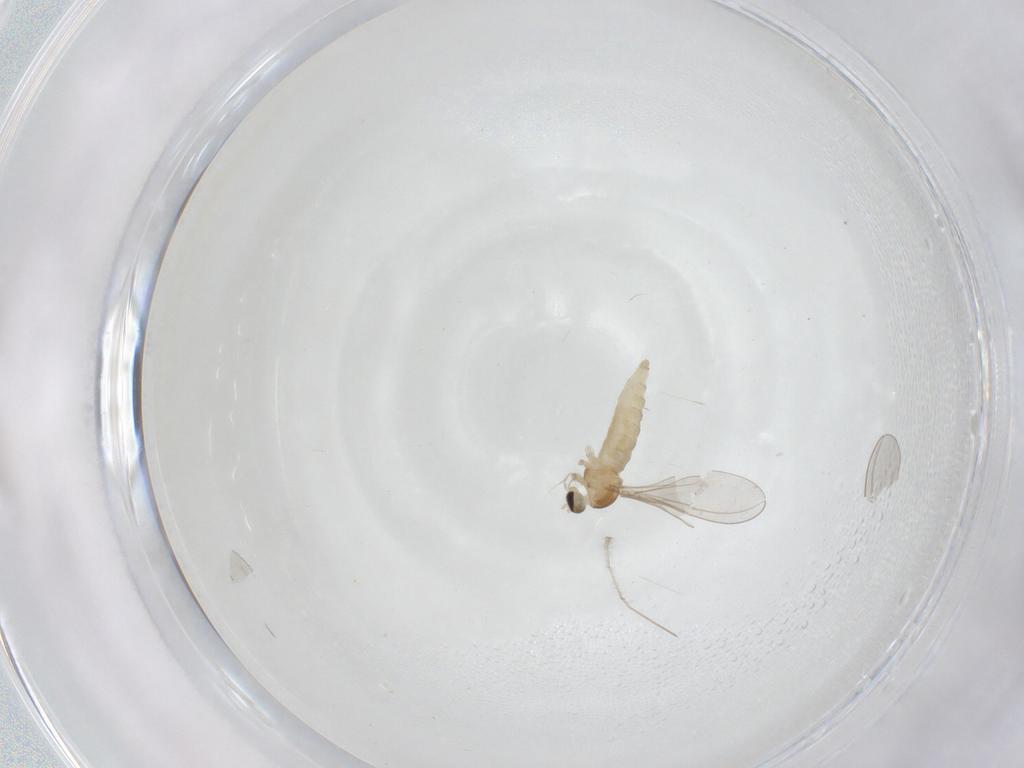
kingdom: Animalia
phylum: Arthropoda
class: Insecta
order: Diptera
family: Cecidomyiidae
